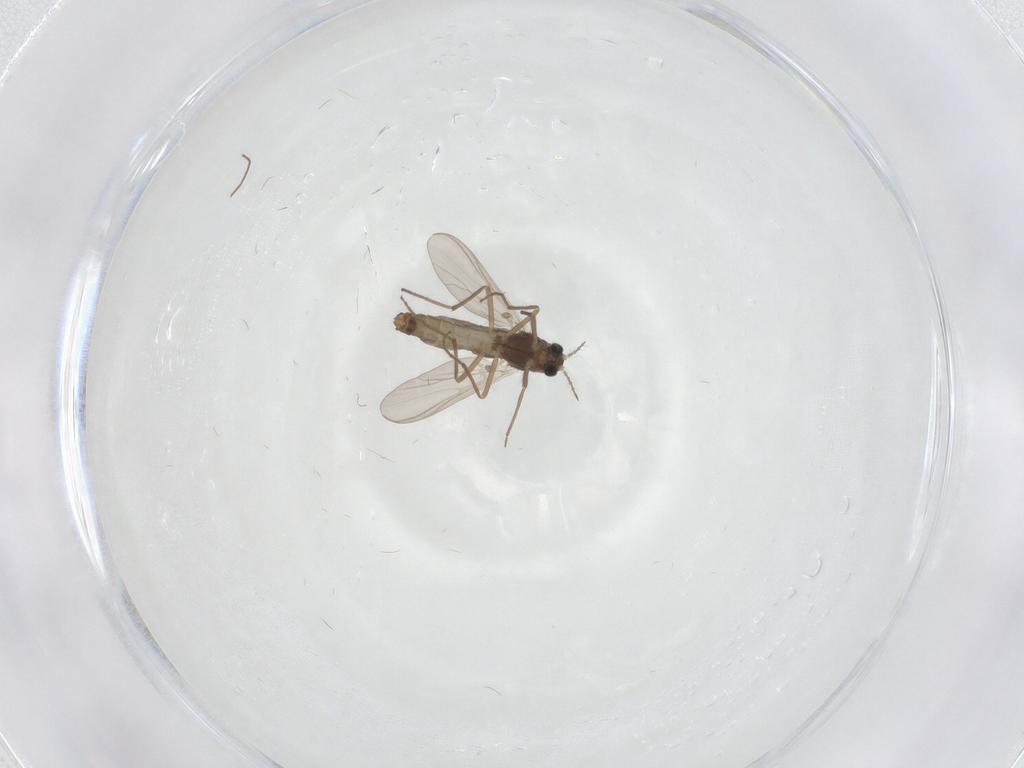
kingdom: Animalia
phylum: Arthropoda
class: Insecta
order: Diptera
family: Chironomidae
